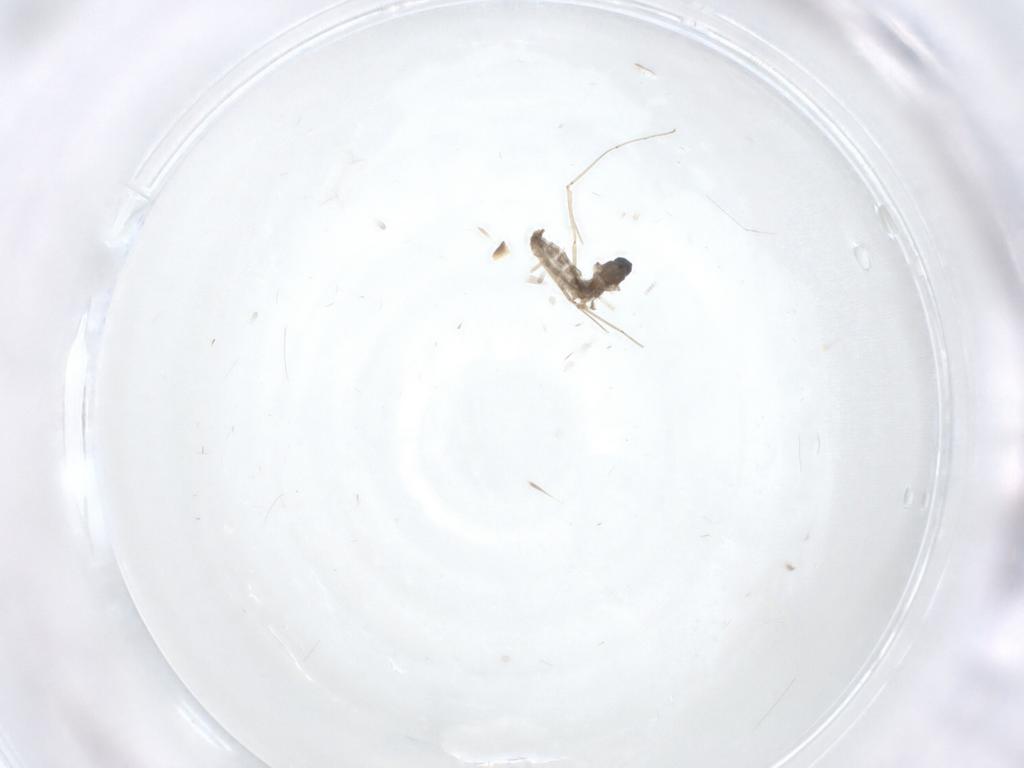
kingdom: Animalia
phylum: Arthropoda
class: Insecta
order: Diptera
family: Cecidomyiidae
